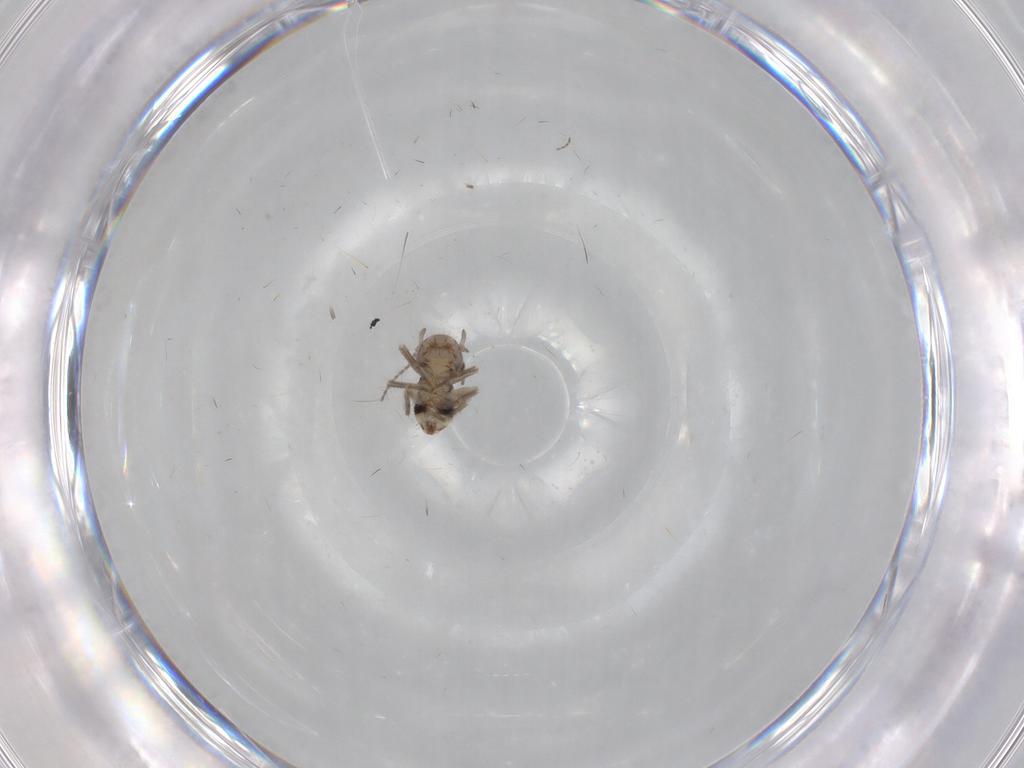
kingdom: Animalia
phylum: Arthropoda
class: Insecta
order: Psocodea
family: Ptiloneuridae
